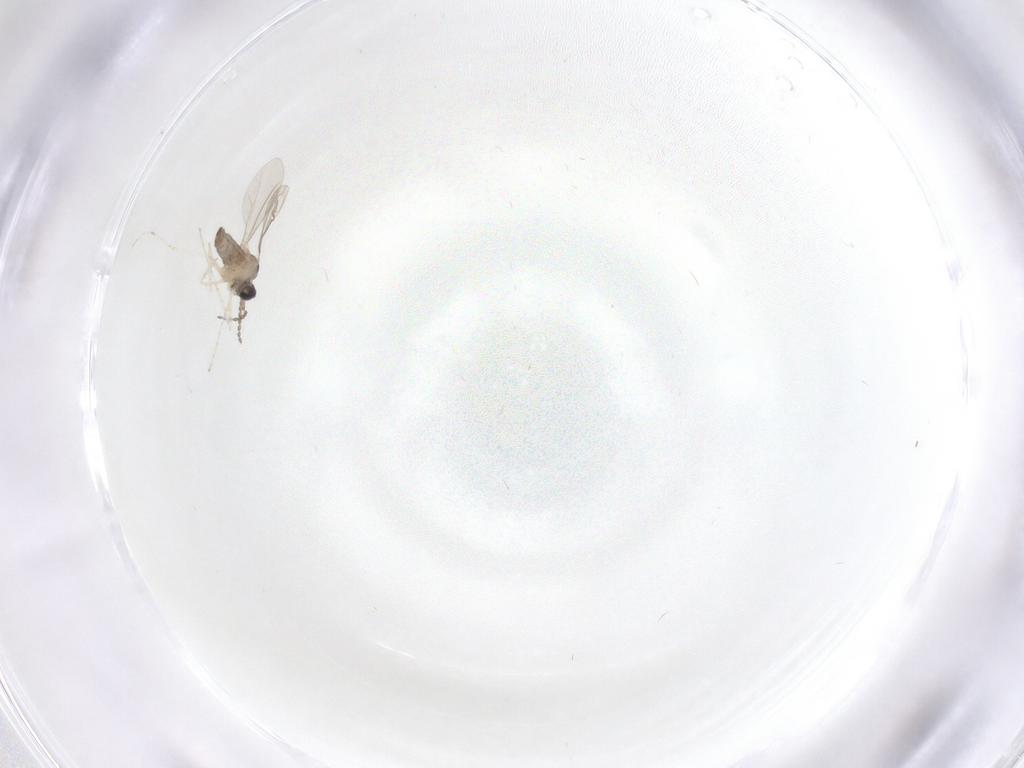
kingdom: Animalia
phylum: Arthropoda
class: Insecta
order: Diptera
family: Cecidomyiidae
